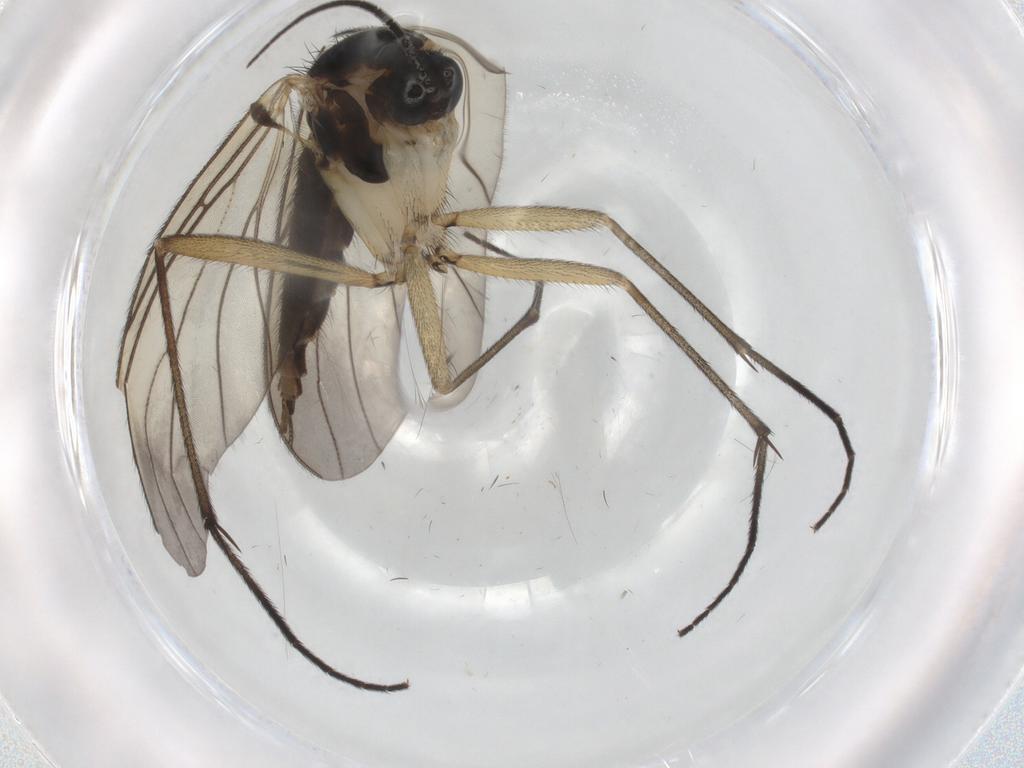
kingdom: Animalia
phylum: Arthropoda
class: Insecta
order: Diptera
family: Sciaridae
